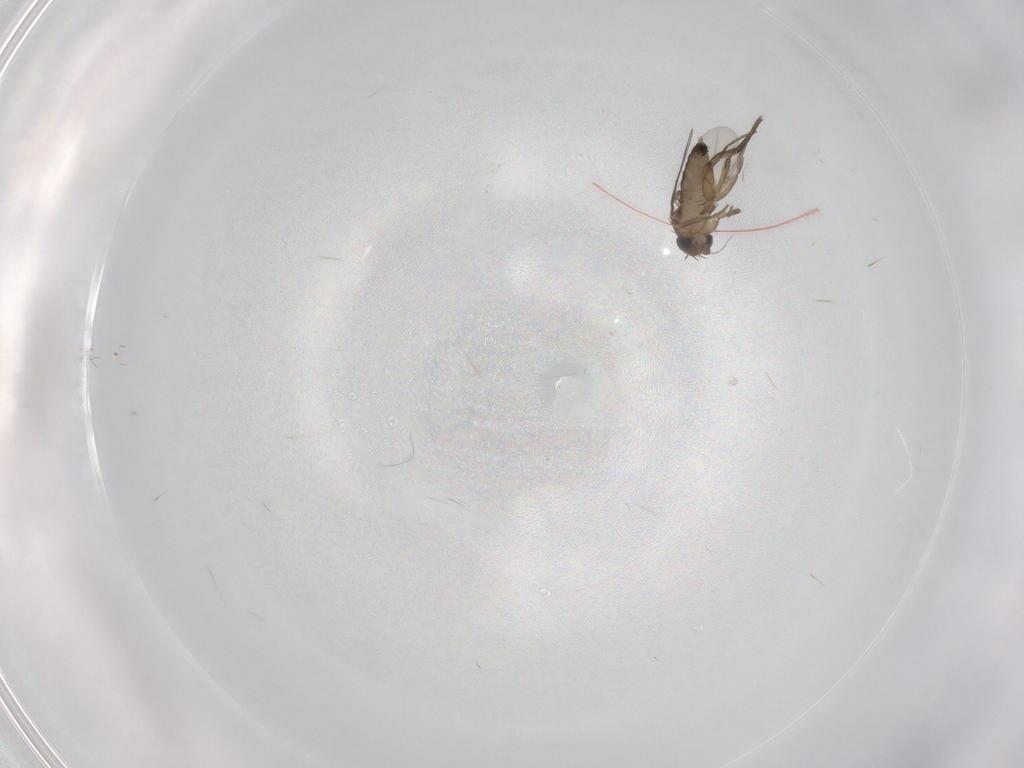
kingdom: Animalia
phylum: Arthropoda
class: Insecta
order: Diptera
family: Phoridae
